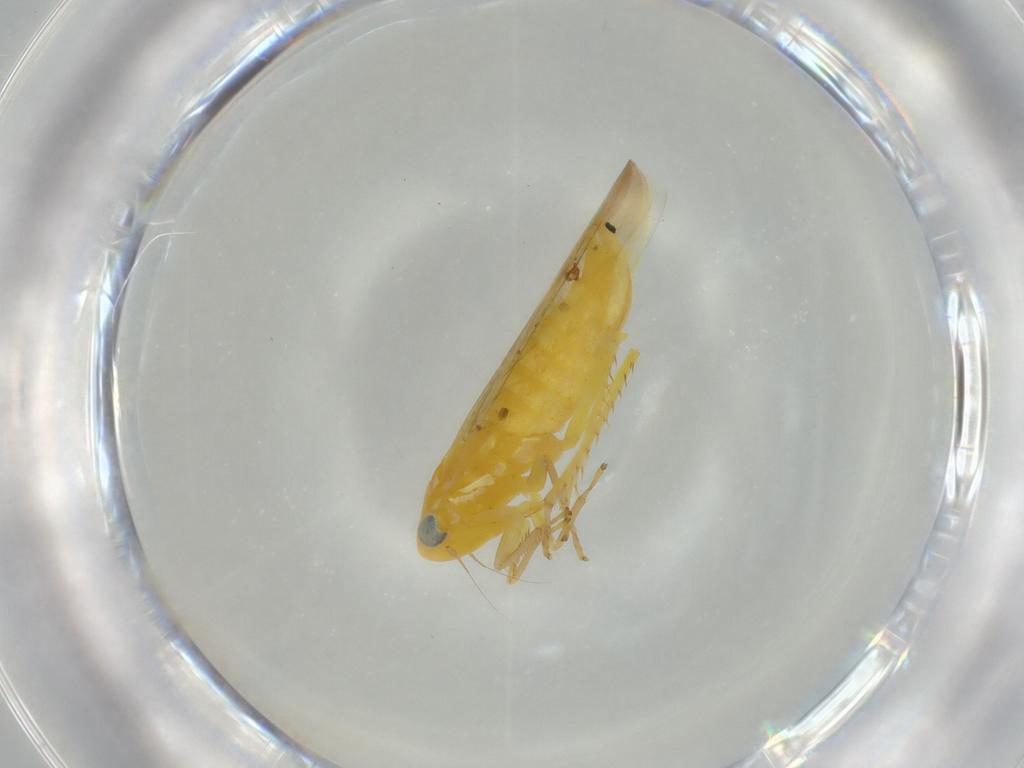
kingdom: Animalia
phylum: Arthropoda
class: Insecta
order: Hemiptera
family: Cicadellidae
